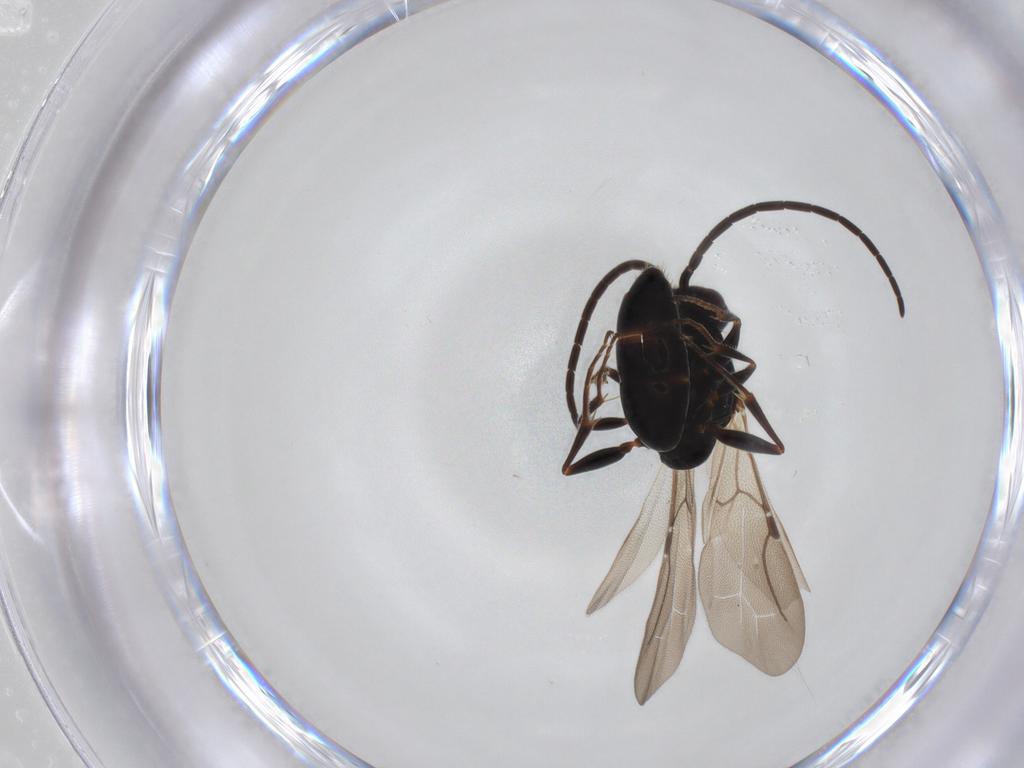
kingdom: Animalia
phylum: Arthropoda
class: Insecta
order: Hymenoptera
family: Bethylidae
